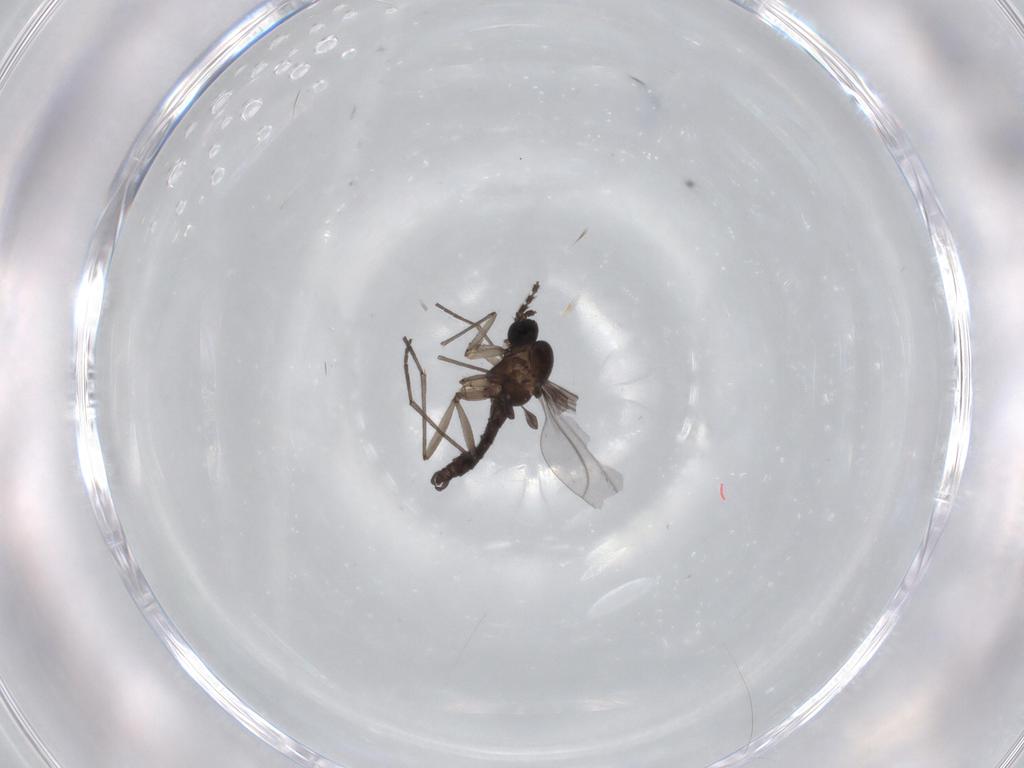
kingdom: Animalia
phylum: Arthropoda
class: Insecta
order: Diptera
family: Sciaridae
